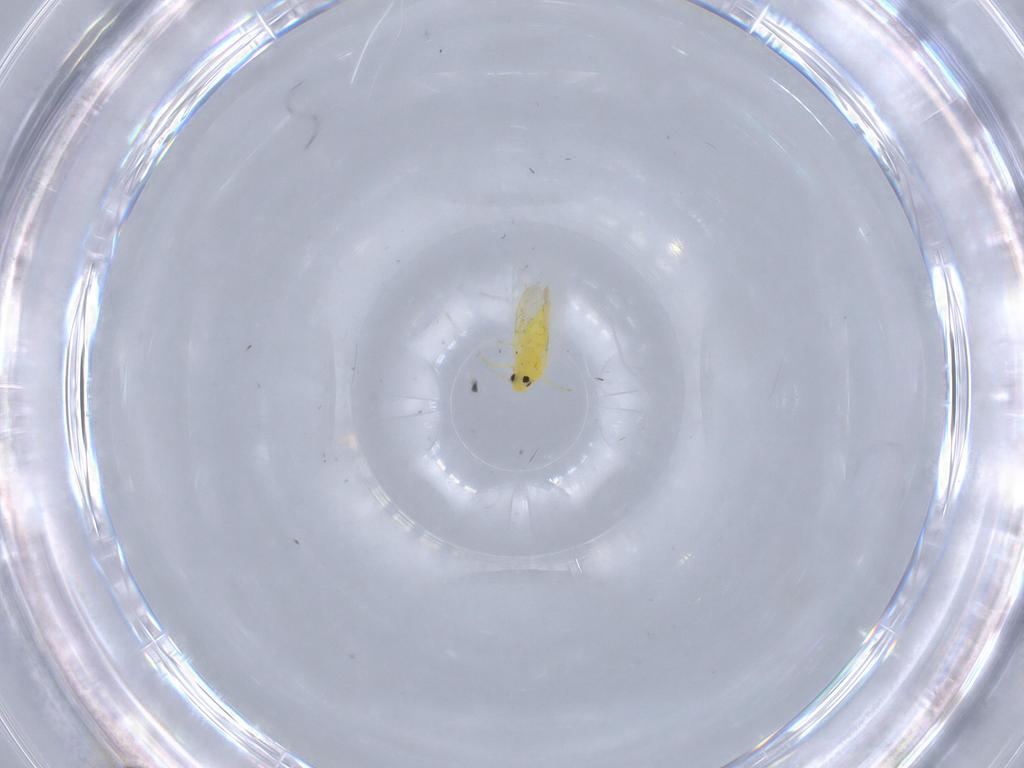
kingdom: Animalia
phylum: Arthropoda
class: Insecta
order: Hemiptera
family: Aleyrodidae
